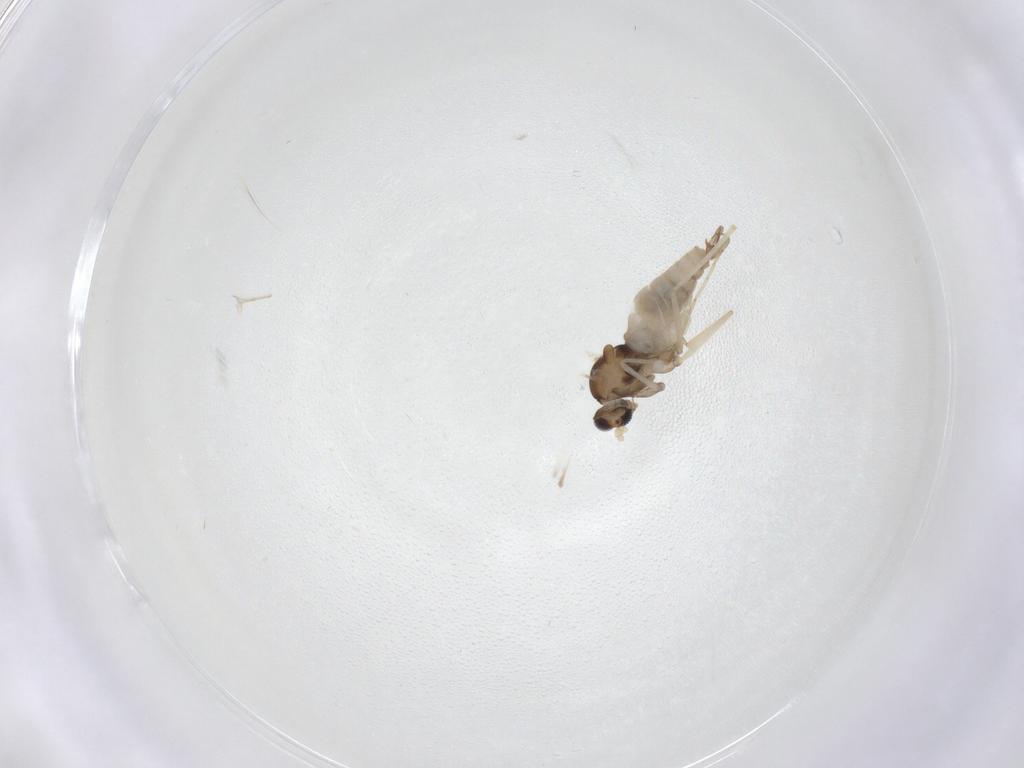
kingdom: Animalia
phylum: Arthropoda
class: Insecta
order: Diptera
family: Cecidomyiidae
